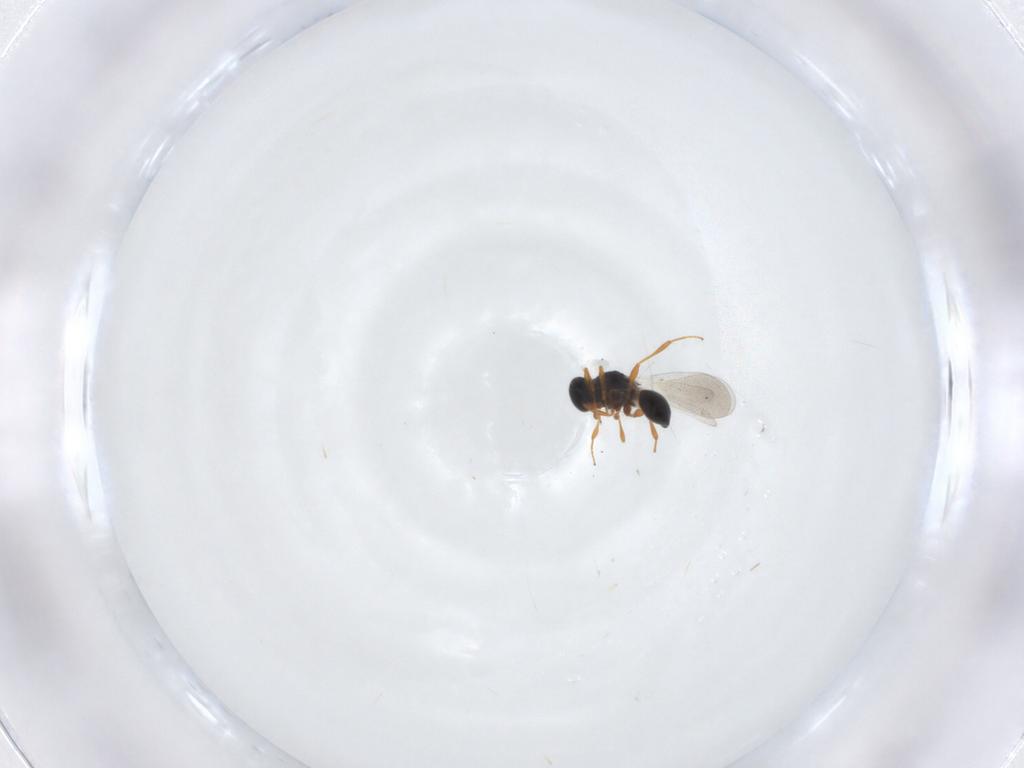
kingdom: Animalia
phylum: Arthropoda
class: Insecta
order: Hymenoptera
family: Platygastridae
